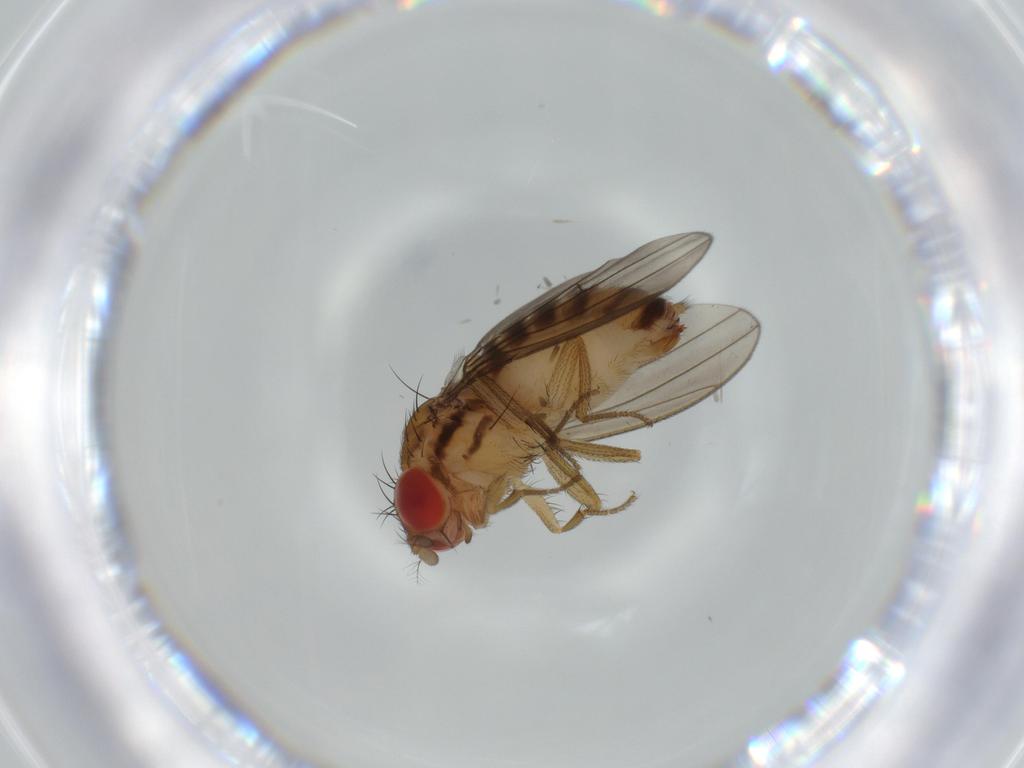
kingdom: Animalia
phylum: Arthropoda
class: Insecta
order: Diptera
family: Drosophilidae
